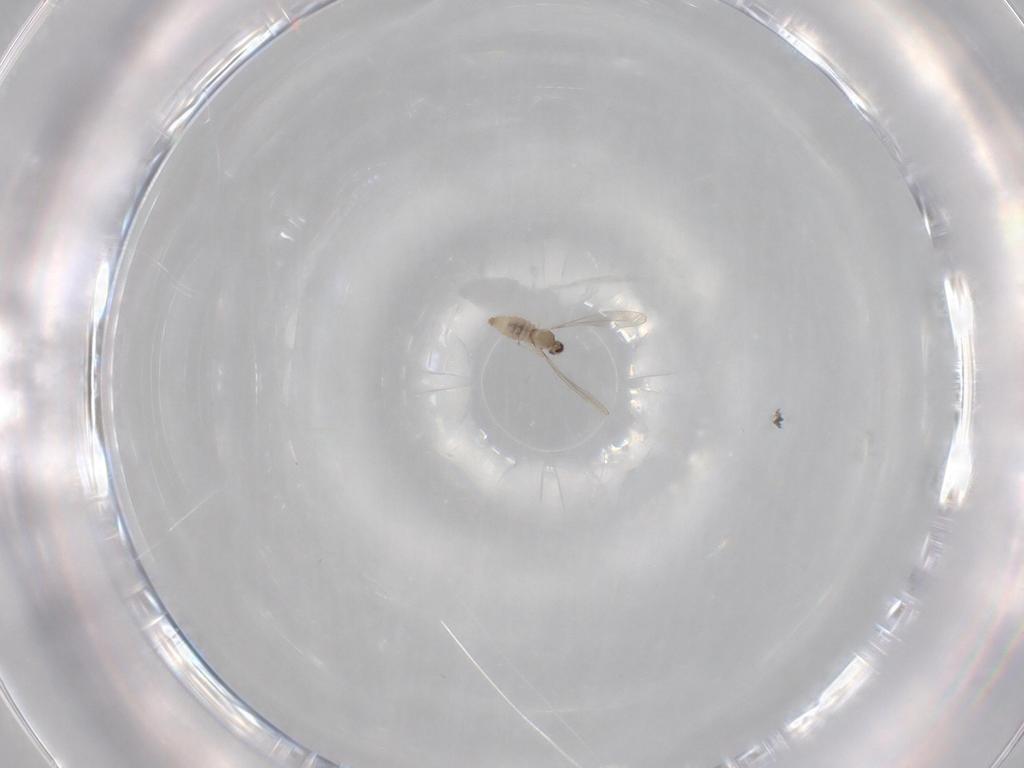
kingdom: Animalia
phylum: Arthropoda
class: Insecta
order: Diptera
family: Cecidomyiidae
